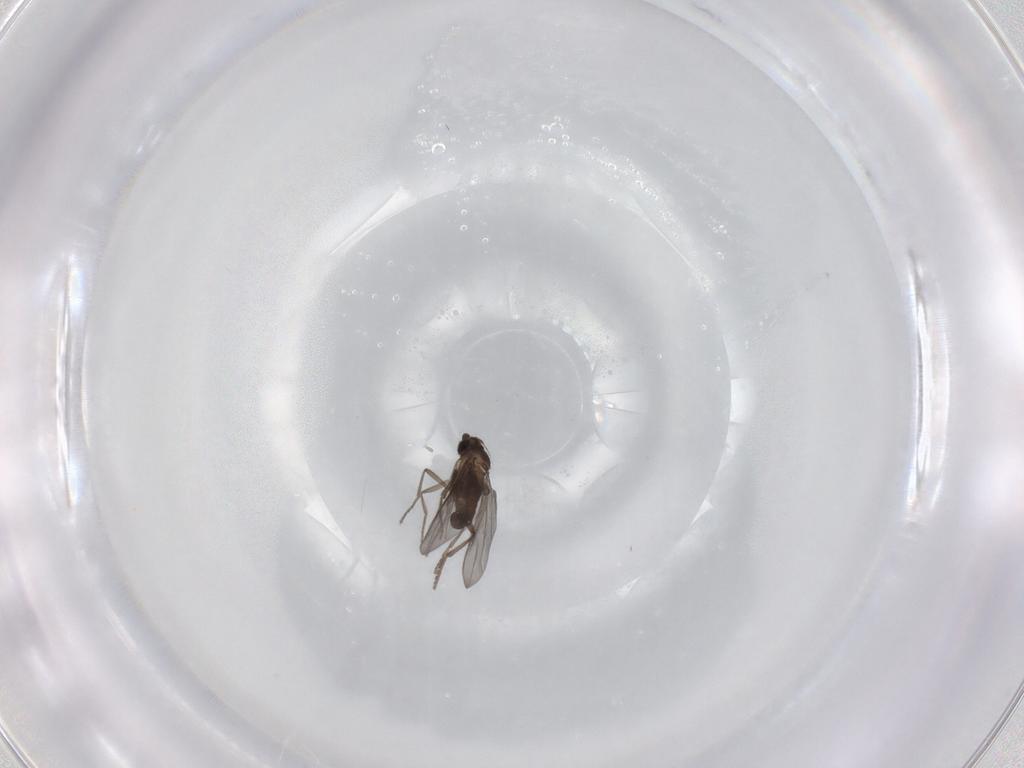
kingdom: Animalia
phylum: Arthropoda
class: Insecta
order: Diptera
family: Phoridae
